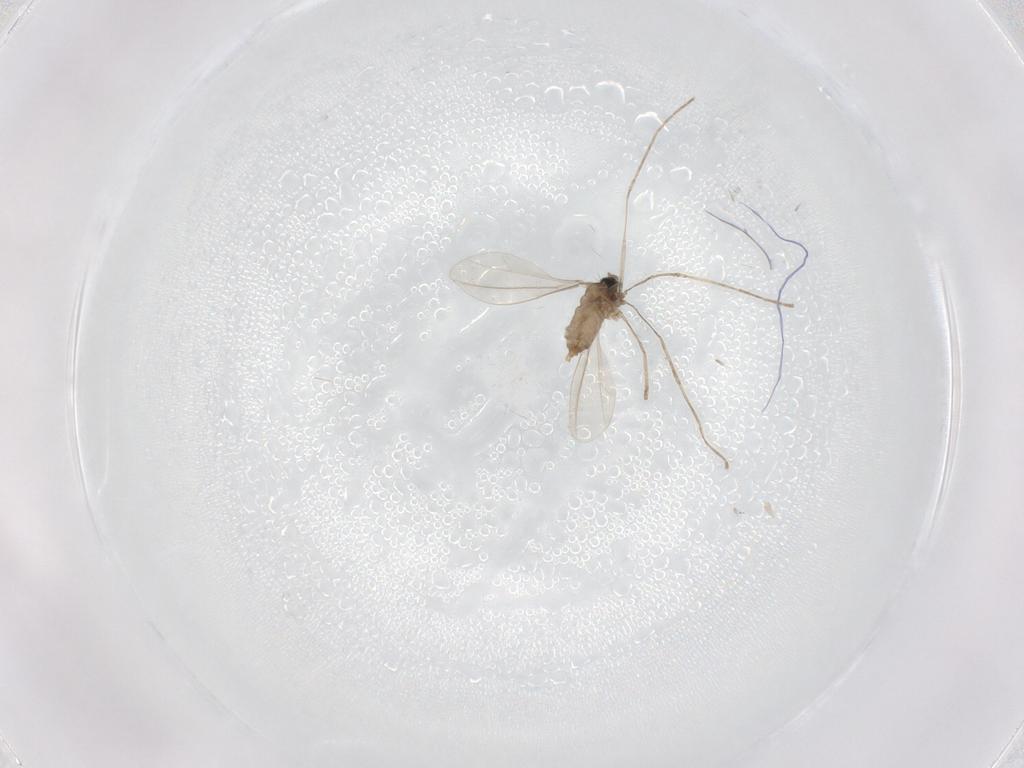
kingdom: Animalia
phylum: Arthropoda
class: Insecta
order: Diptera
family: Cecidomyiidae
